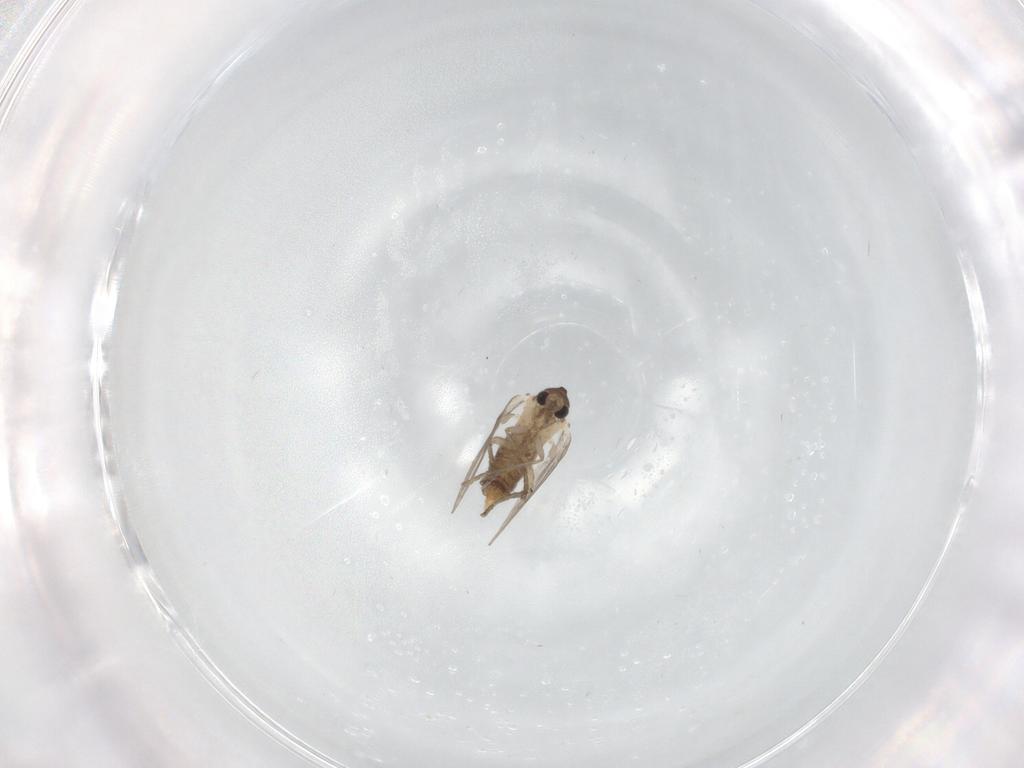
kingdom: Animalia
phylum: Arthropoda
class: Insecta
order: Diptera
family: Psychodidae
